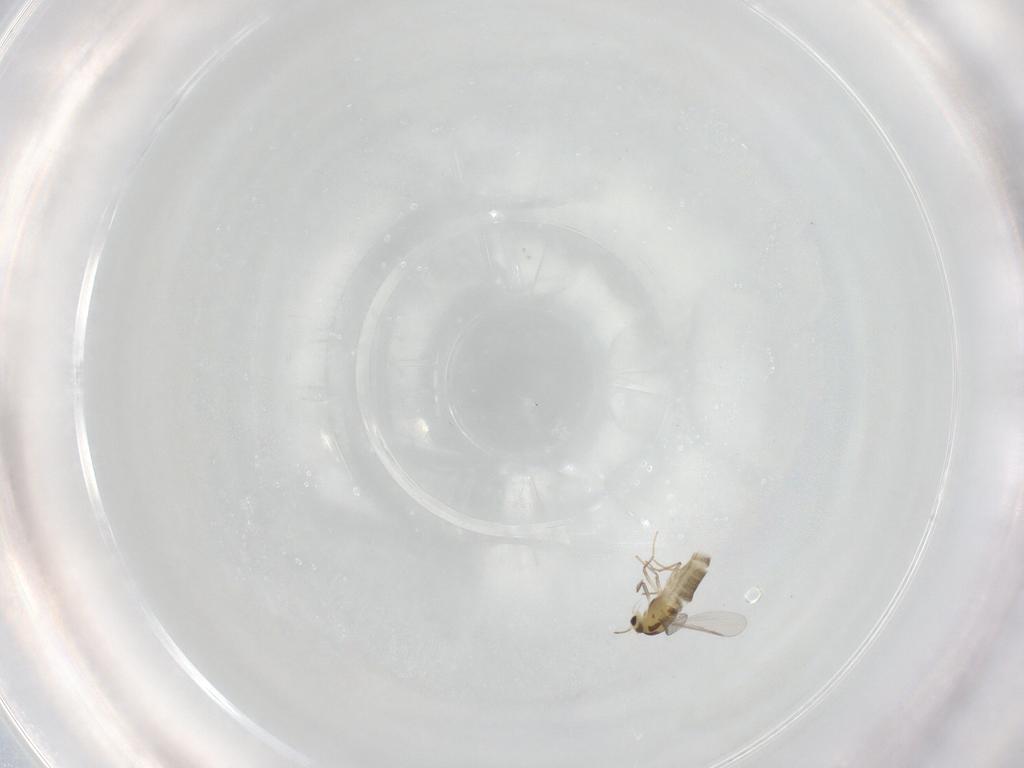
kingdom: Animalia
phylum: Arthropoda
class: Insecta
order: Diptera
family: Chironomidae
